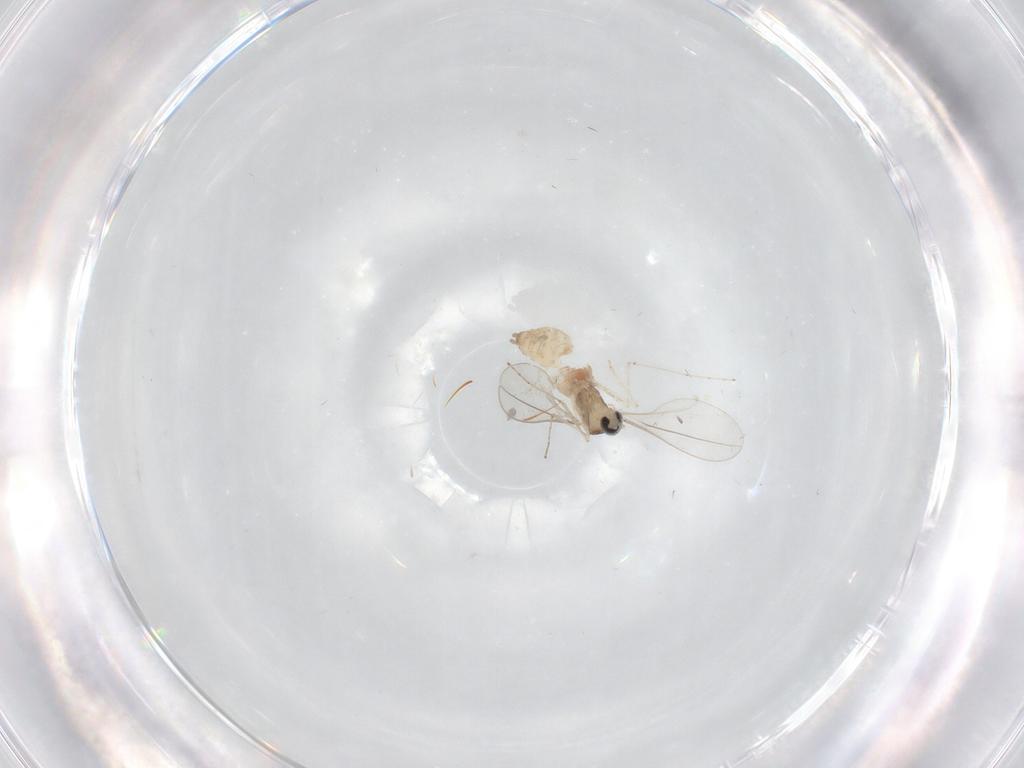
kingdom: Animalia
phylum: Arthropoda
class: Insecta
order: Diptera
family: Cecidomyiidae
